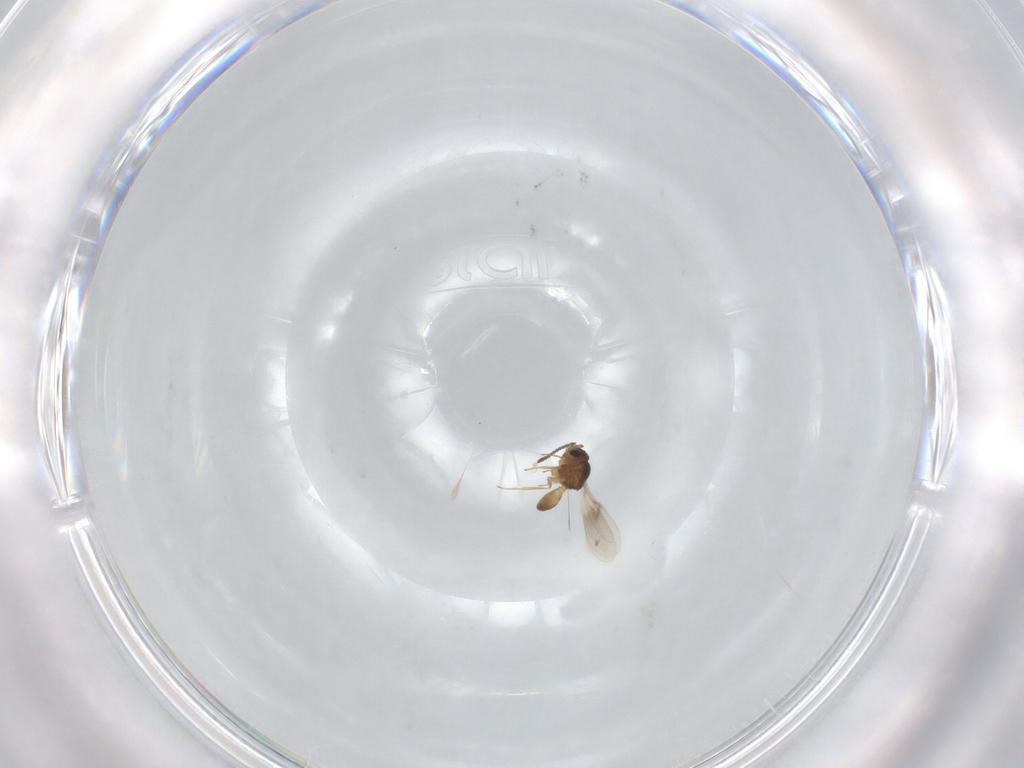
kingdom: Animalia
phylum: Arthropoda
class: Insecta
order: Hymenoptera
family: Scelionidae
